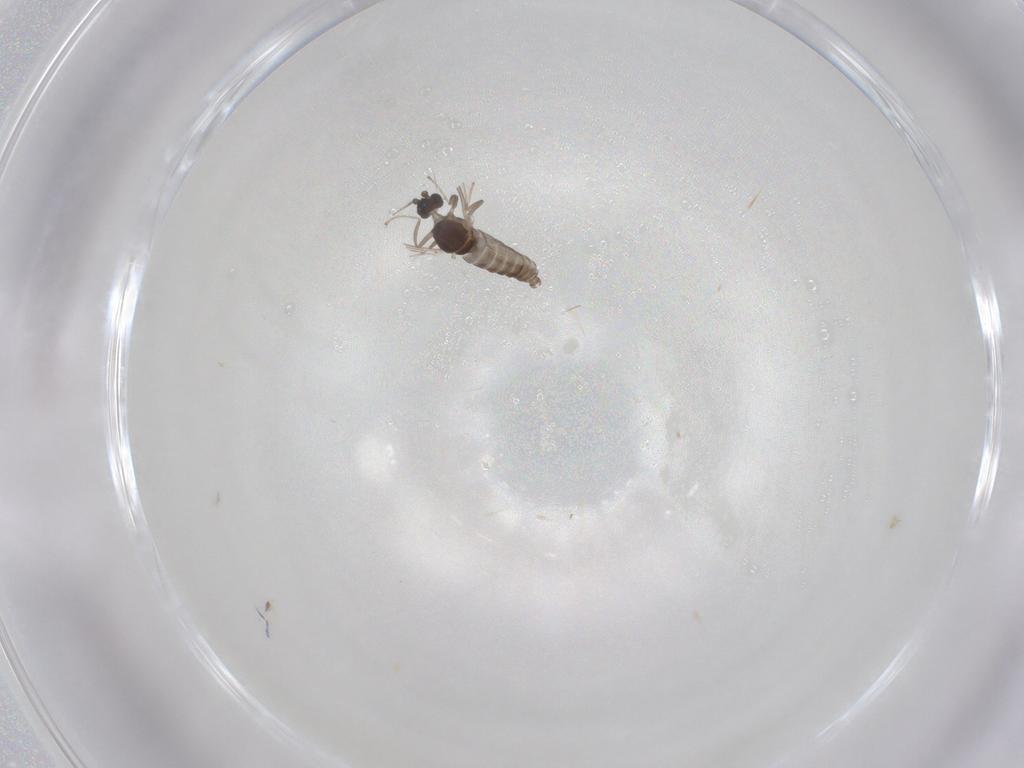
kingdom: Animalia
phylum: Arthropoda
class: Insecta
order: Diptera
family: Cecidomyiidae
